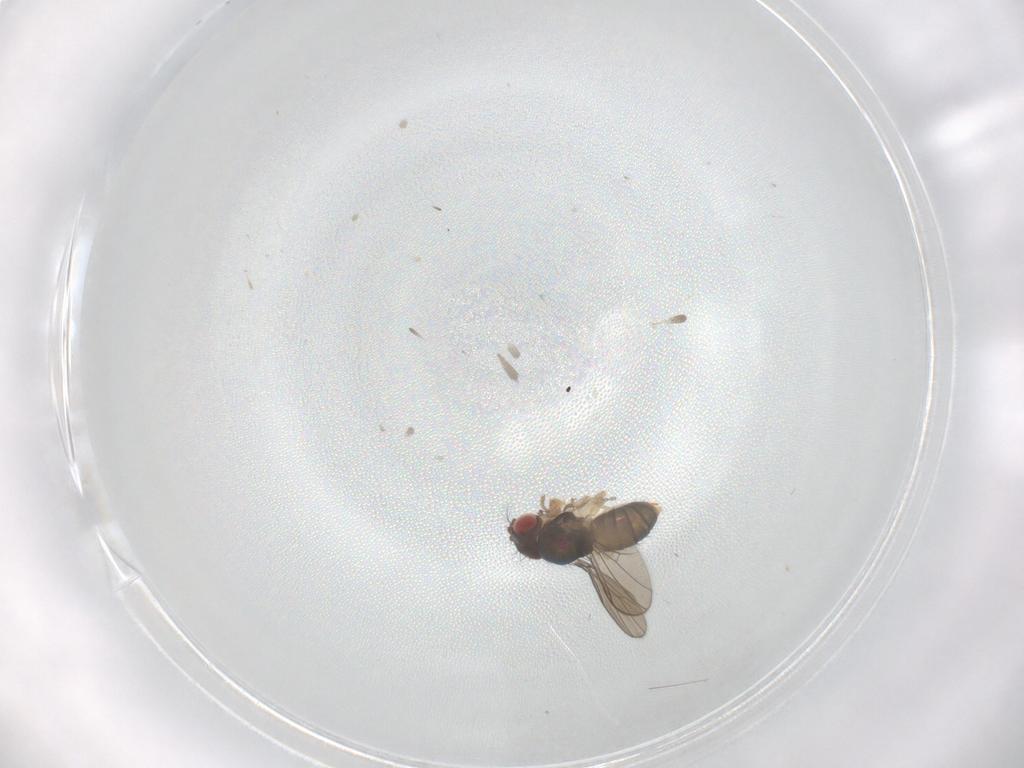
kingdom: Animalia
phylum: Arthropoda
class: Insecta
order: Diptera
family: Drosophilidae
